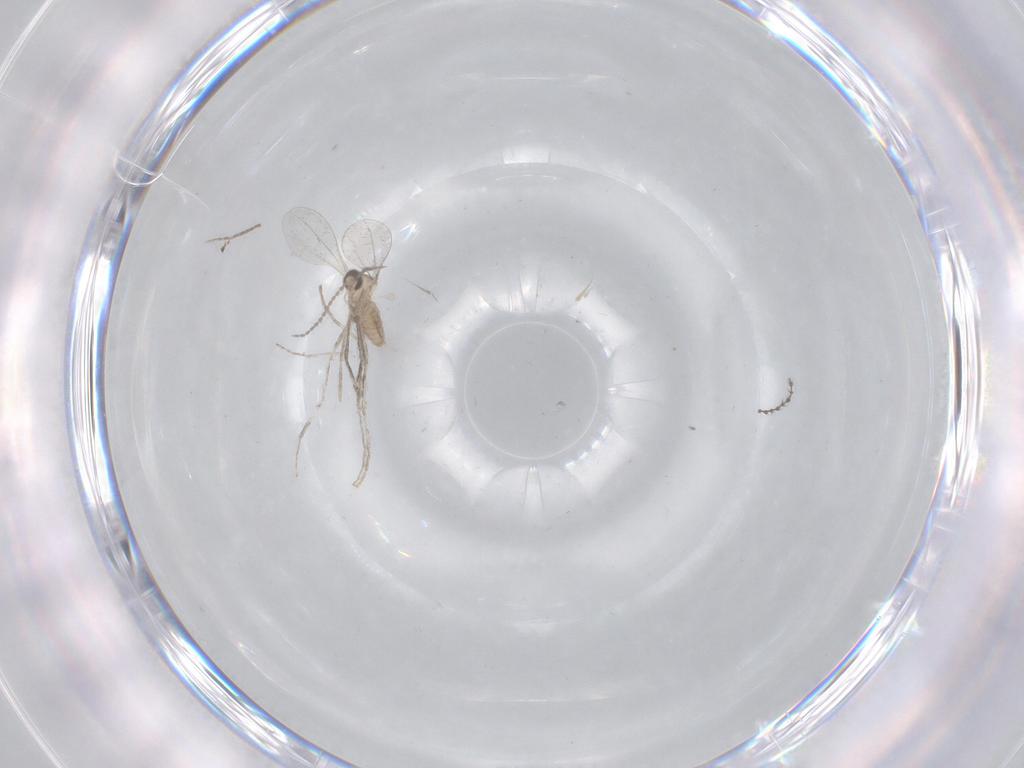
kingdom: Animalia
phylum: Arthropoda
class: Insecta
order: Diptera
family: Cecidomyiidae
